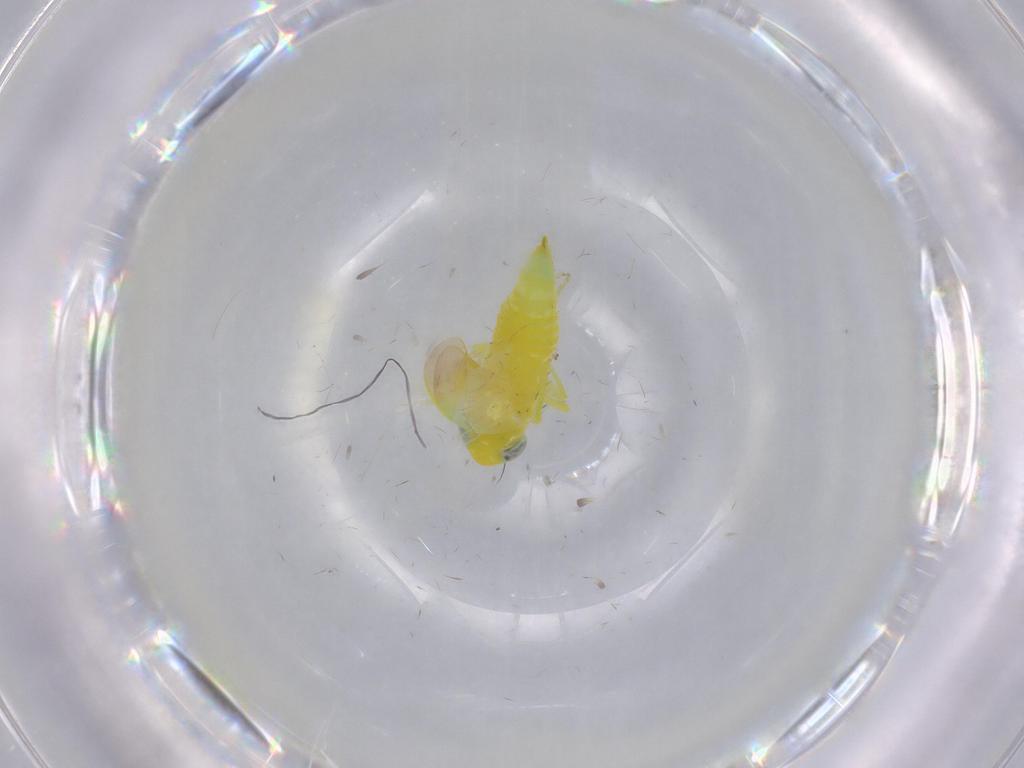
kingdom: Animalia
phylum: Arthropoda
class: Insecta
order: Hemiptera
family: Cicadellidae
